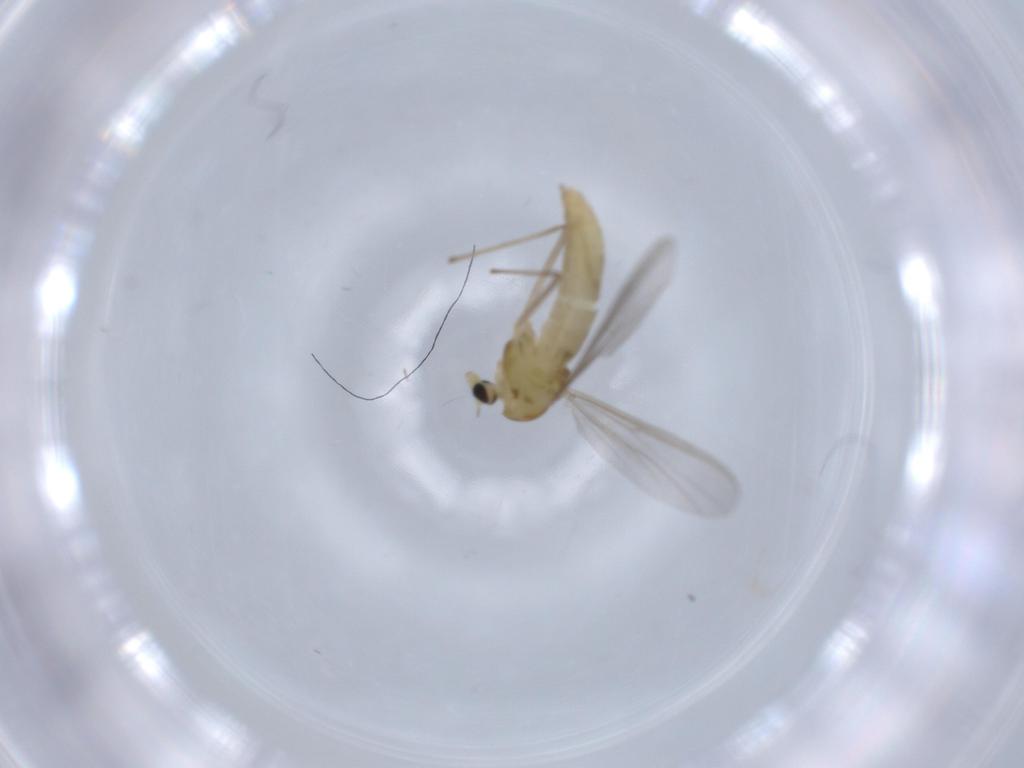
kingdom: Animalia
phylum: Arthropoda
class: Insecta
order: Diptera
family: Chironomidae
